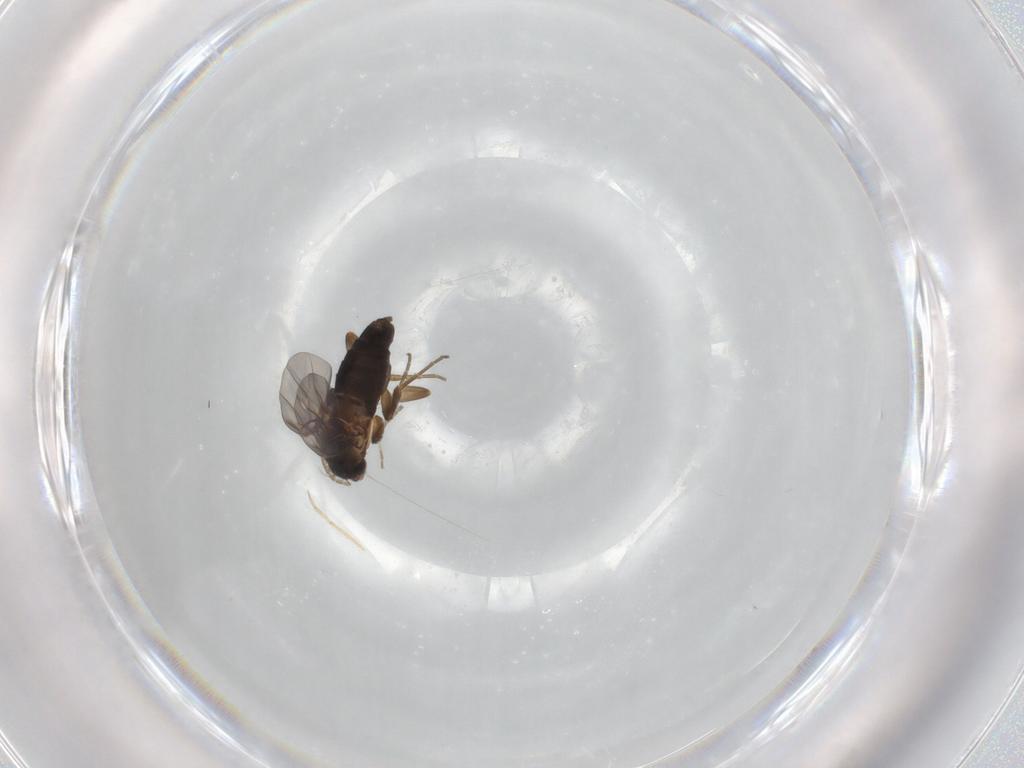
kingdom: Animalia
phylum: Arthropoda
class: Insecta
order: Diptera
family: Phoridae
